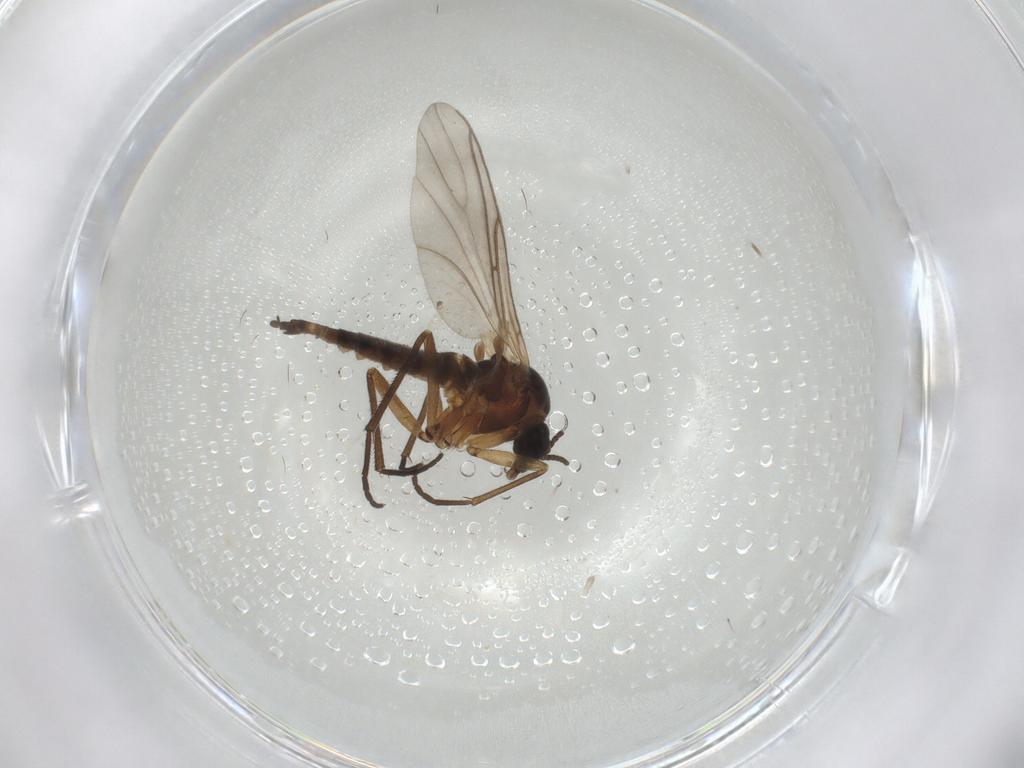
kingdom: Animalia
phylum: Arthropoda
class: Insecta
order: Diptera
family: Sciaridae
